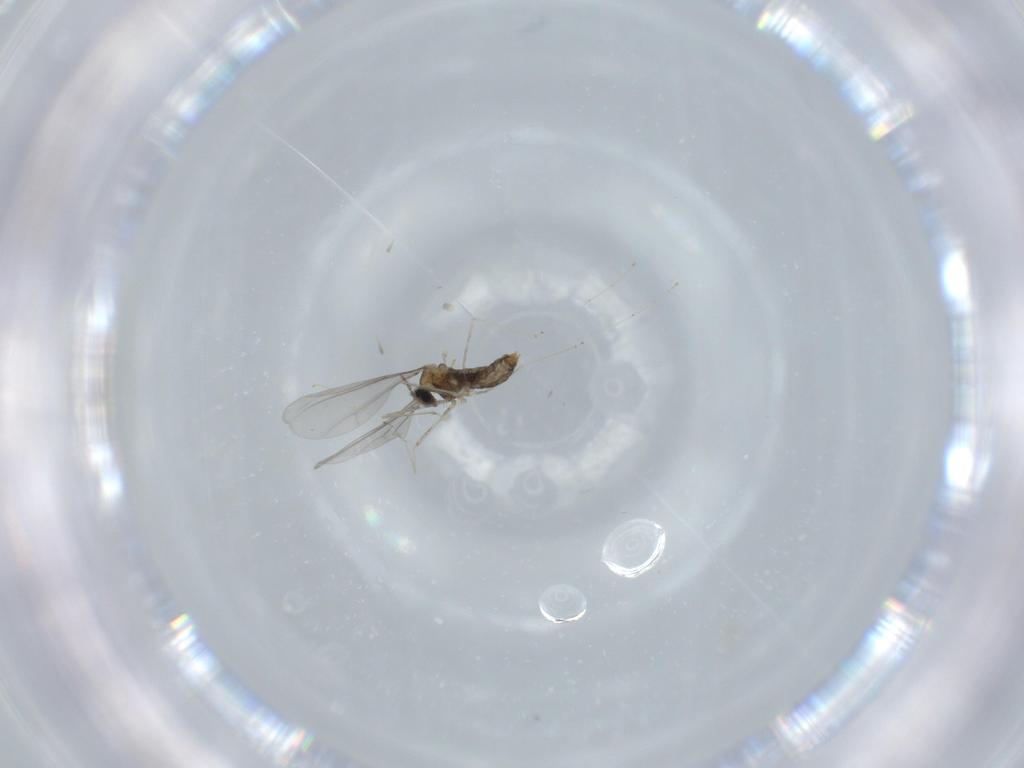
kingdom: Animalia
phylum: Arthropoda
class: Insecta
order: Diptera
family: Cecidomyiidae
